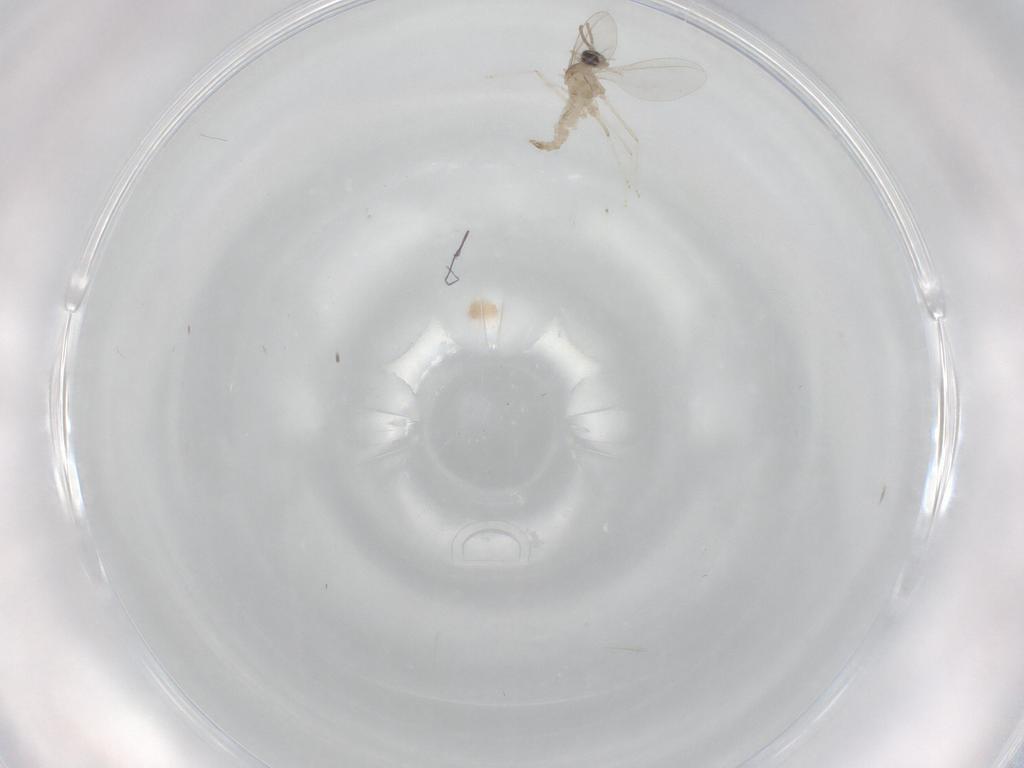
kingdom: Animalia
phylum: Arthropoda
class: Insecta
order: Diptera
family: Cecidomyiidae
